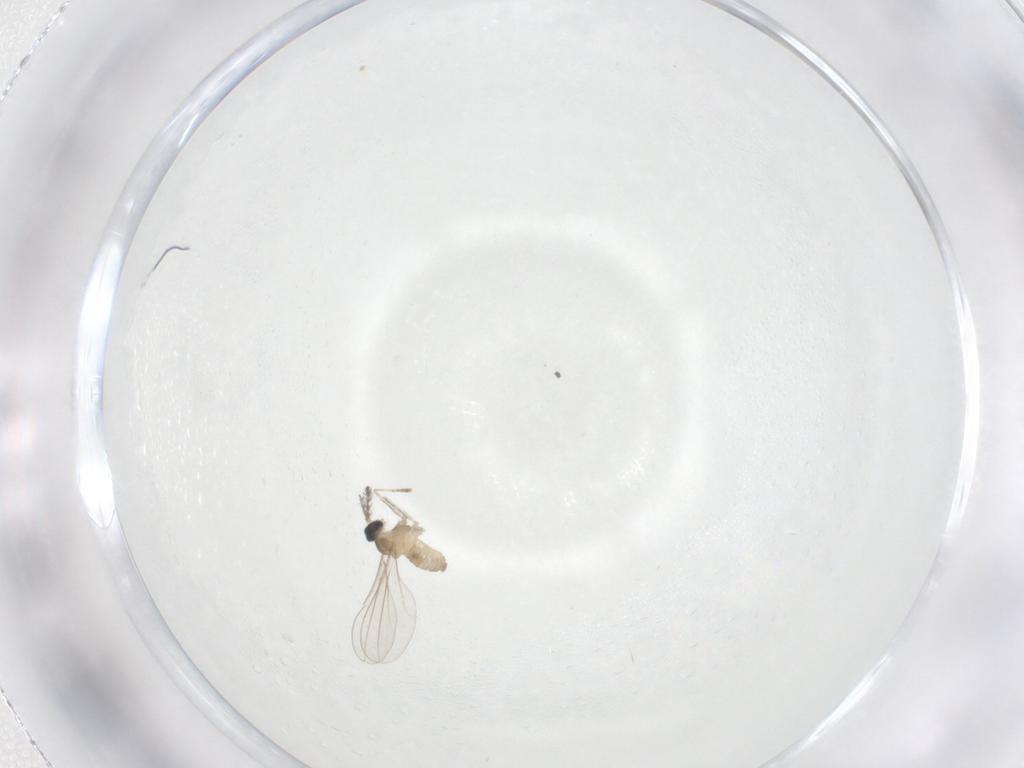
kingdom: Animalia
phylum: Arthropoda
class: Insecta
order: Diptera
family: Cecidomyiidae
